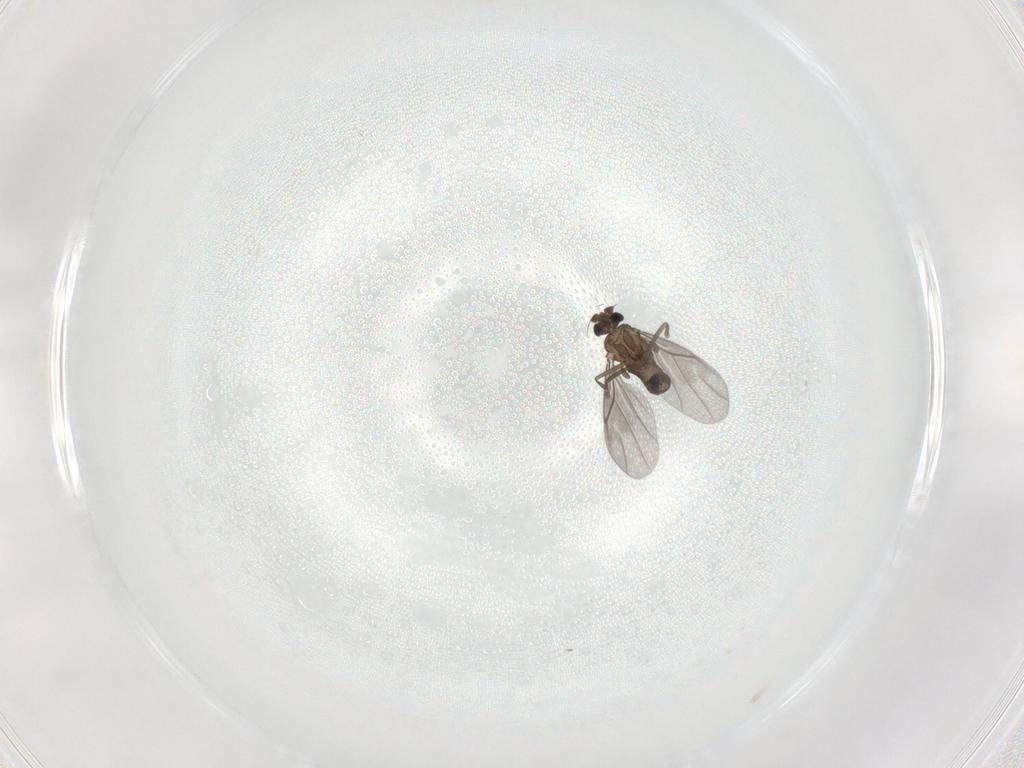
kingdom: Animalia
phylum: Arthropoda
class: Insecta
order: Diptera
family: Phoridae
